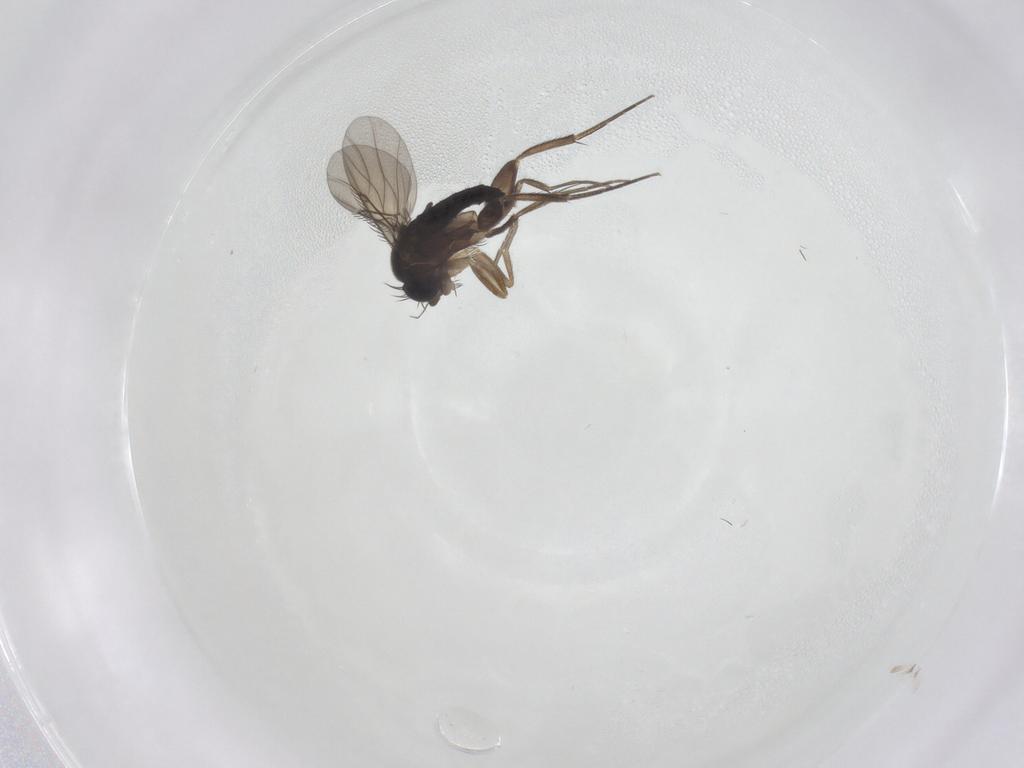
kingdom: Animalia
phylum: Arthropoda
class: Insecta
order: Diptera
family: Phoridae
